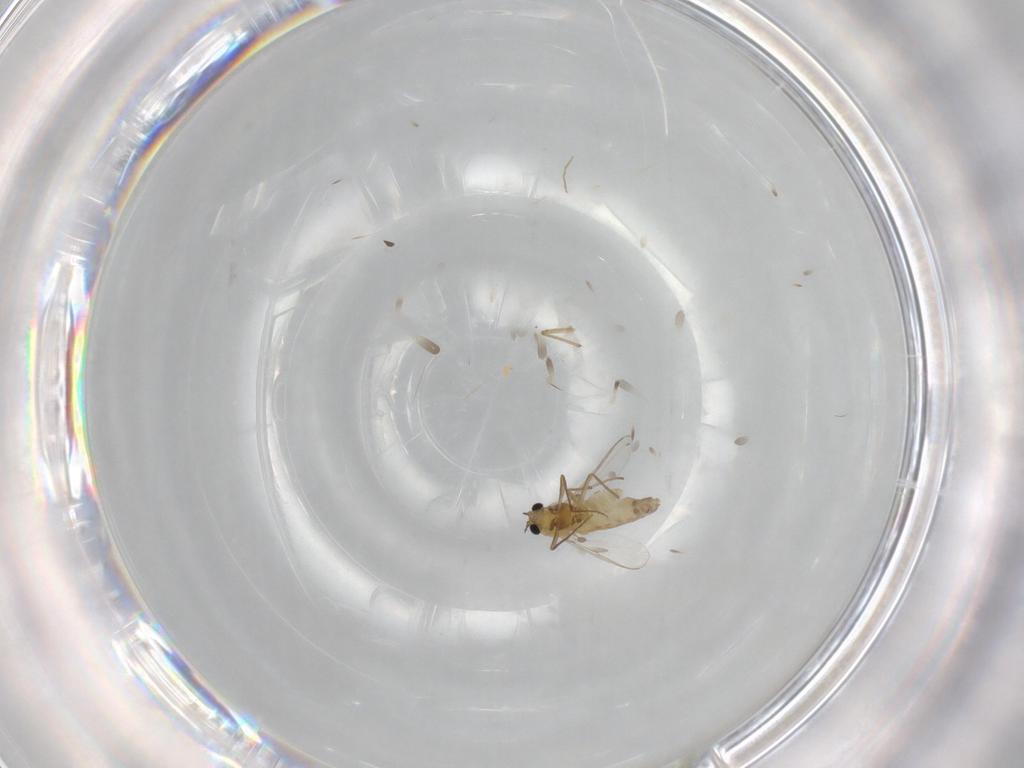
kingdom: Animalia
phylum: Arthropoda
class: Insecta
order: Diptera
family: Chironomidae
